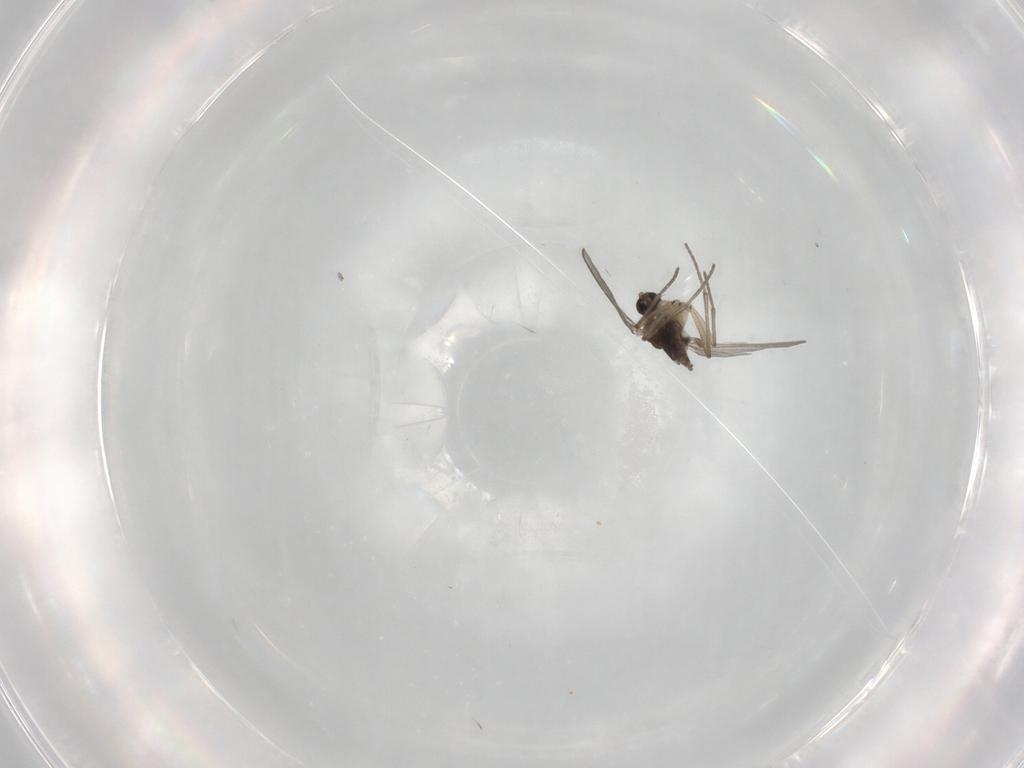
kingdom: Animalia
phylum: Arthropoda
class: Insecta
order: Diptera
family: Sciaridae
